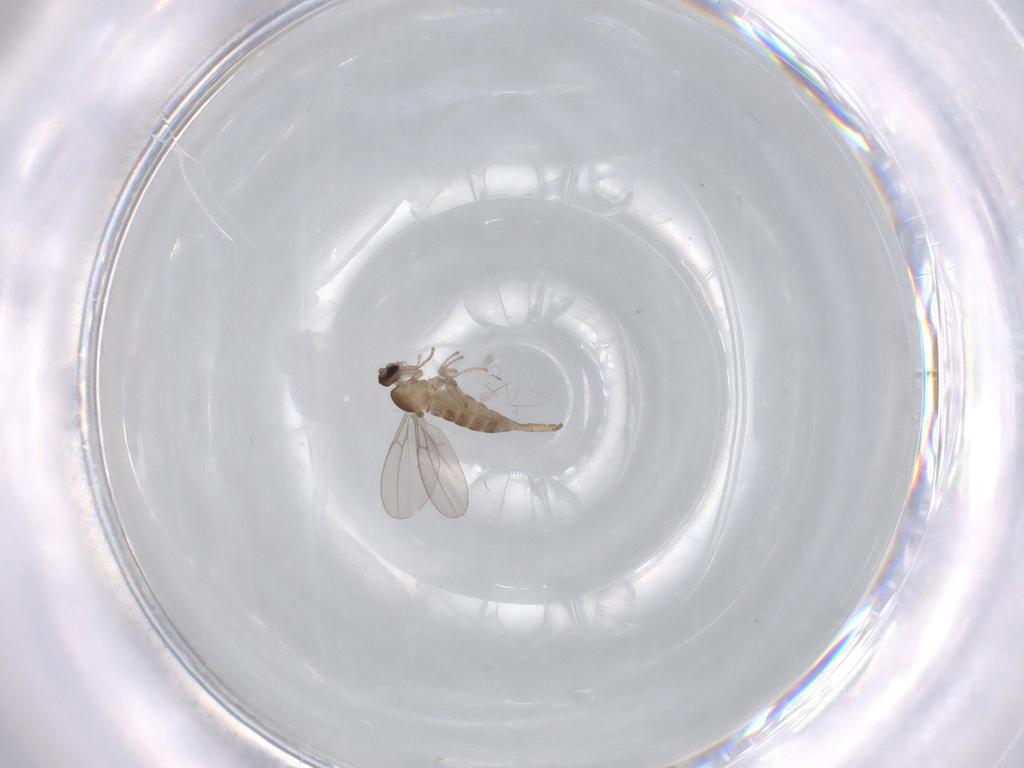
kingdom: Animalia
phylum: Arthropoda
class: Insecta
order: Diptera
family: Cecidomyiidae
